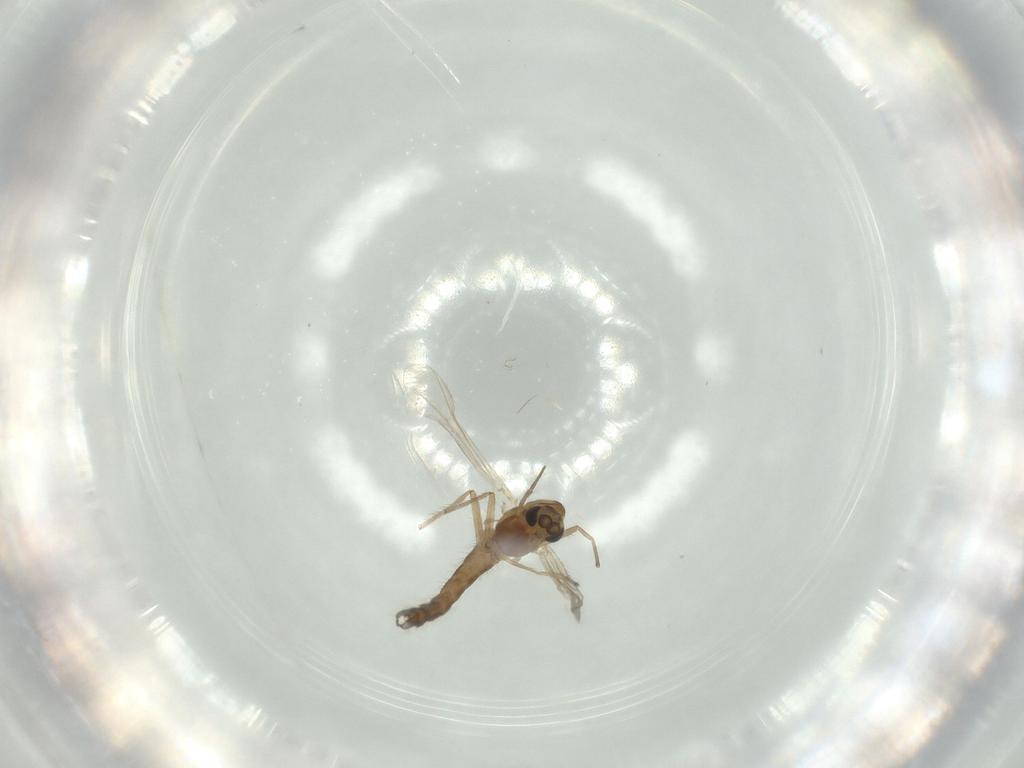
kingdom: Animalia
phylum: Arthropoda
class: Insecta
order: Diptera
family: Chironomidae
